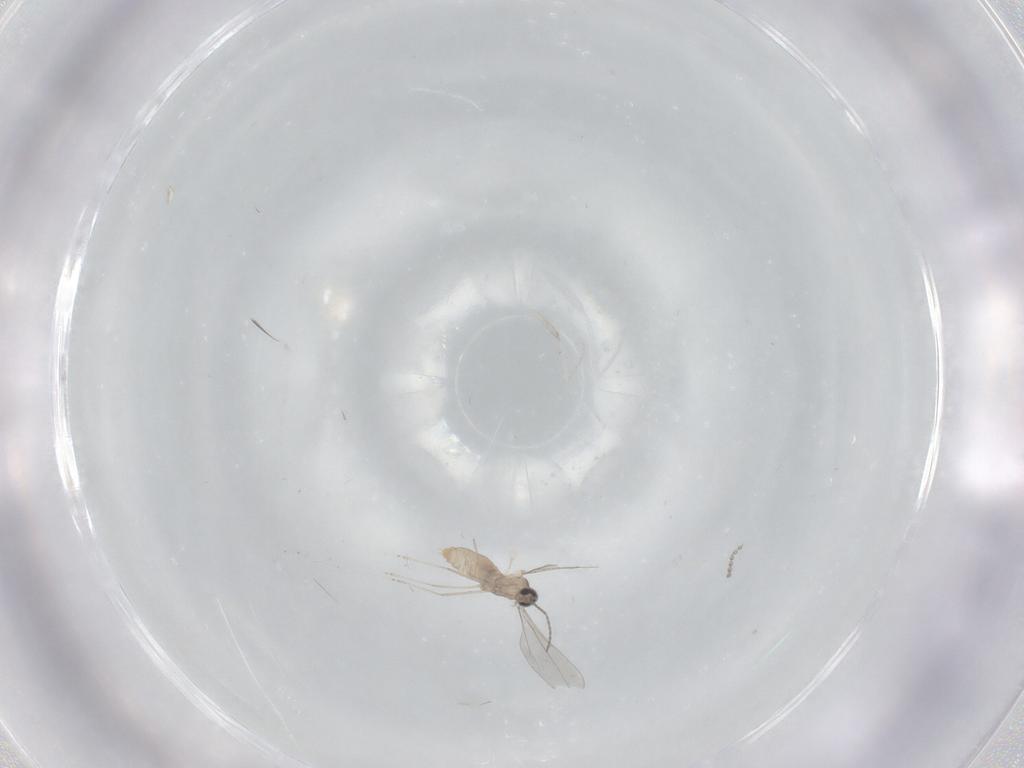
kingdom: Animalia
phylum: Arthropoda
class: Insecta
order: Diptera
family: Cecidomyiidae
